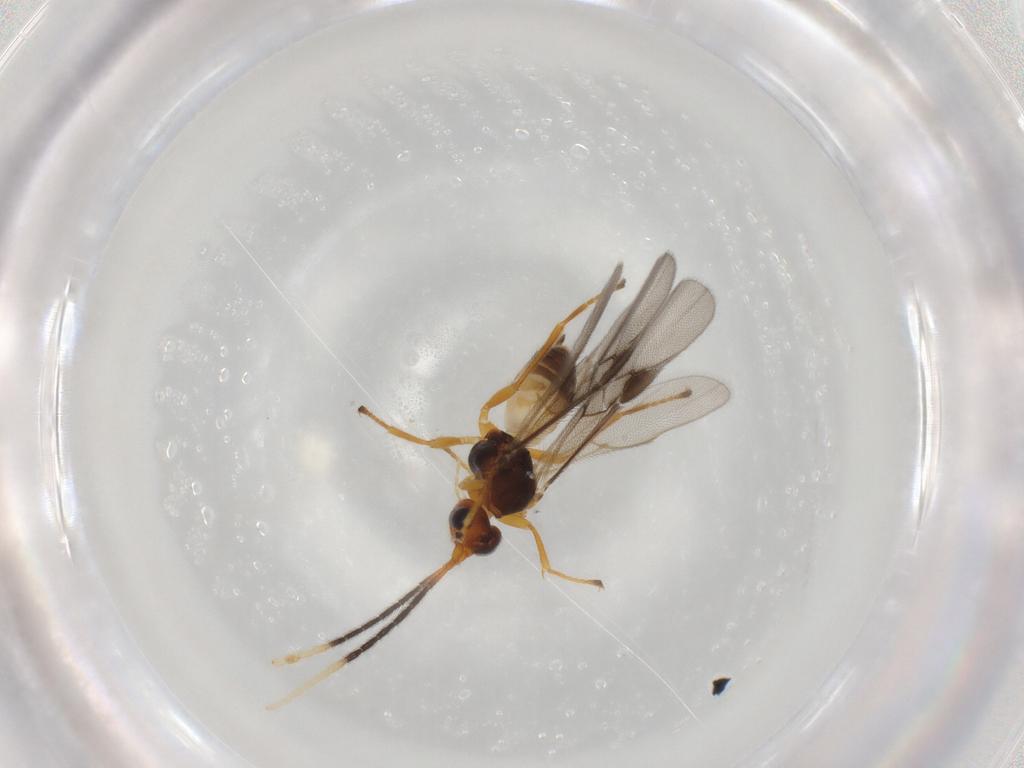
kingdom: Animalia
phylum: Arthropoda
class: Insecta
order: Hymenoptera
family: Braconidae
